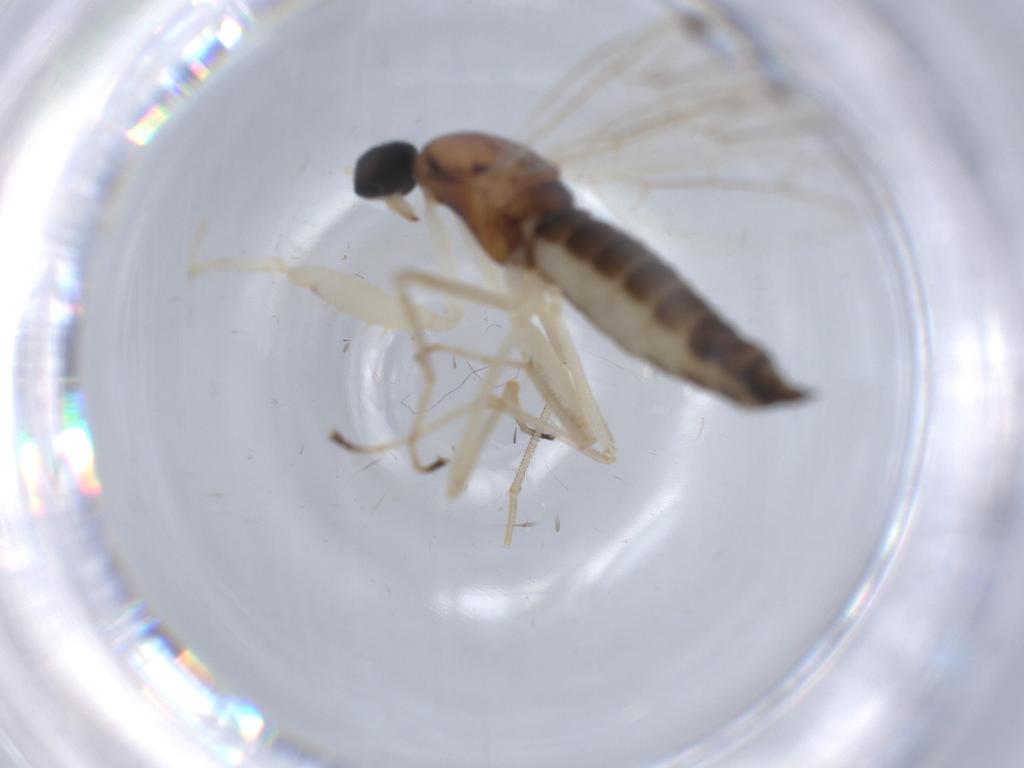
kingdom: Animalia
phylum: Arthropoda
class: Insecta
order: Diptera
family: Empididae
